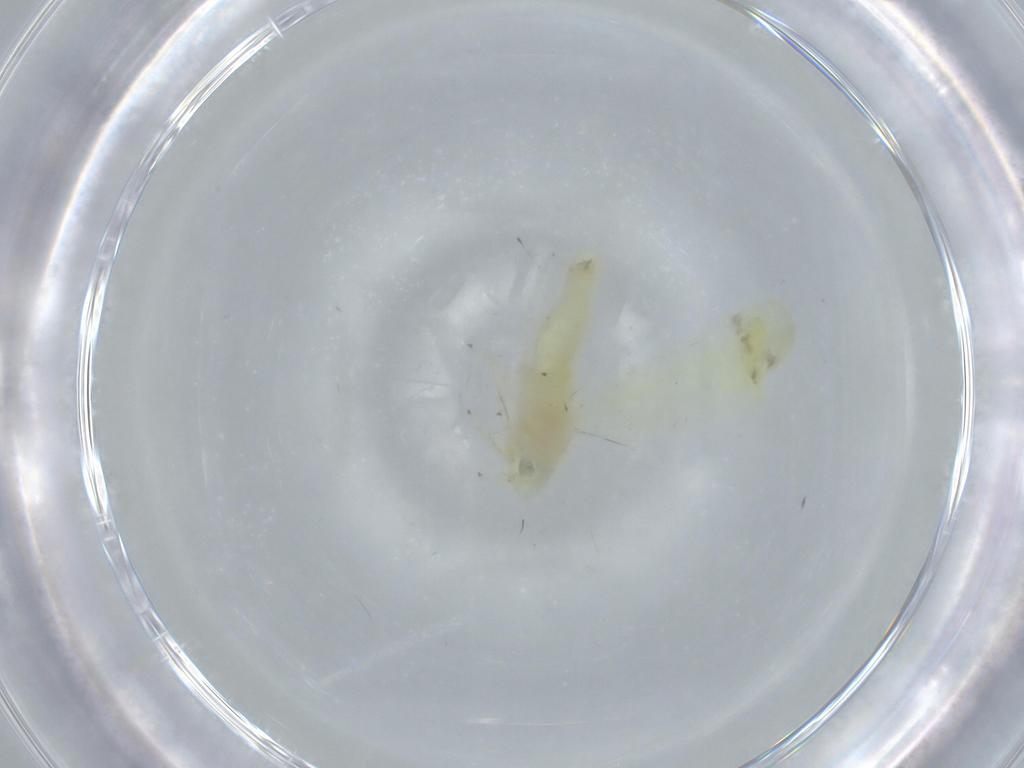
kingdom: Animalia
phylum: Arthropoda
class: Insecta
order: Hemiptera
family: Cicadellidae
